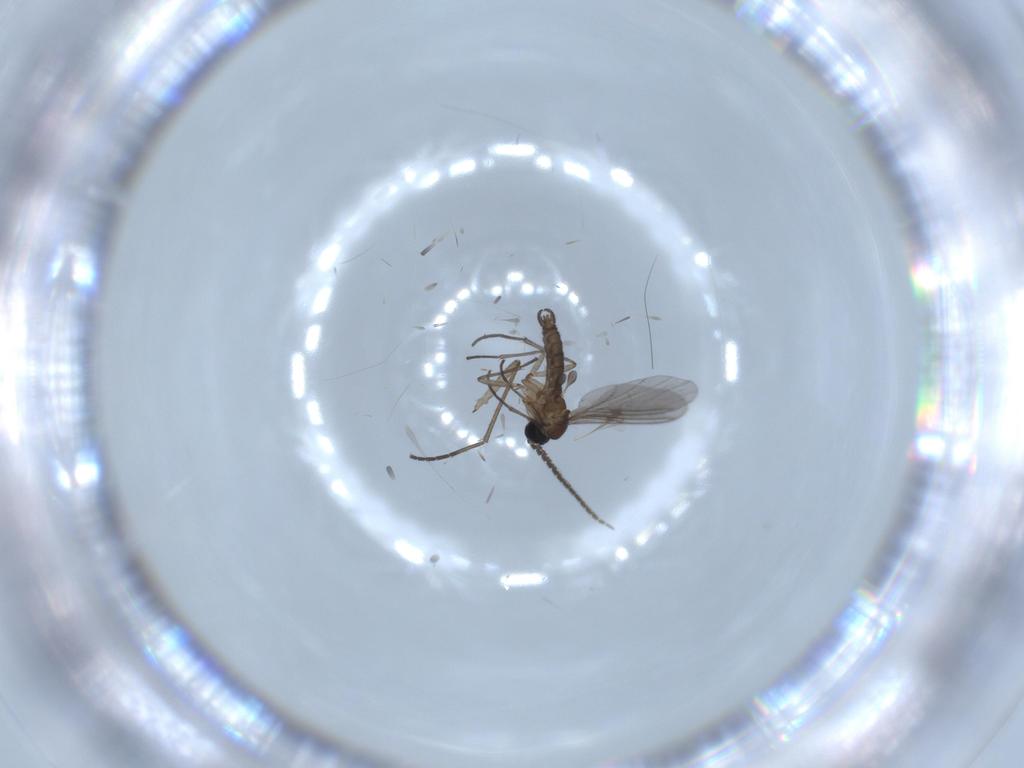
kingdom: Animalia
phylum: Arthropoda
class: Insecta
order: Diptera
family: Sciaridae
